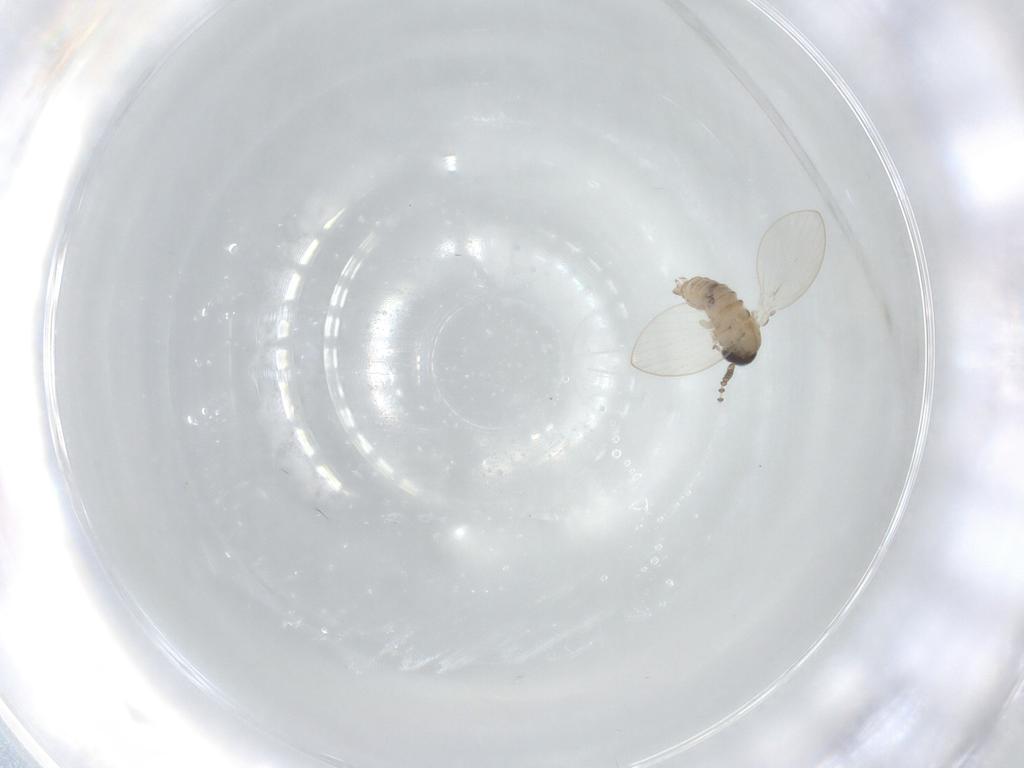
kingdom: Animalia
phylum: Arthropoda
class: Insecta
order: Diptera
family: Psychodidae
